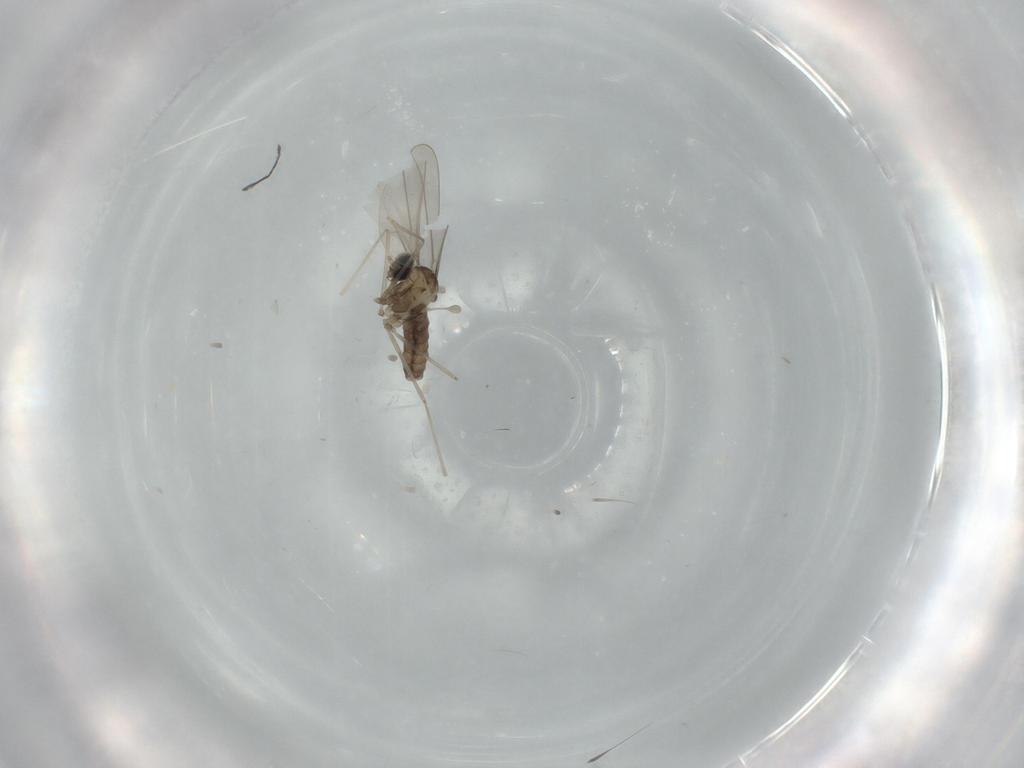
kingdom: Animalia
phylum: Arthropoda
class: Insecta
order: Diptera
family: Cecidomyiidae
